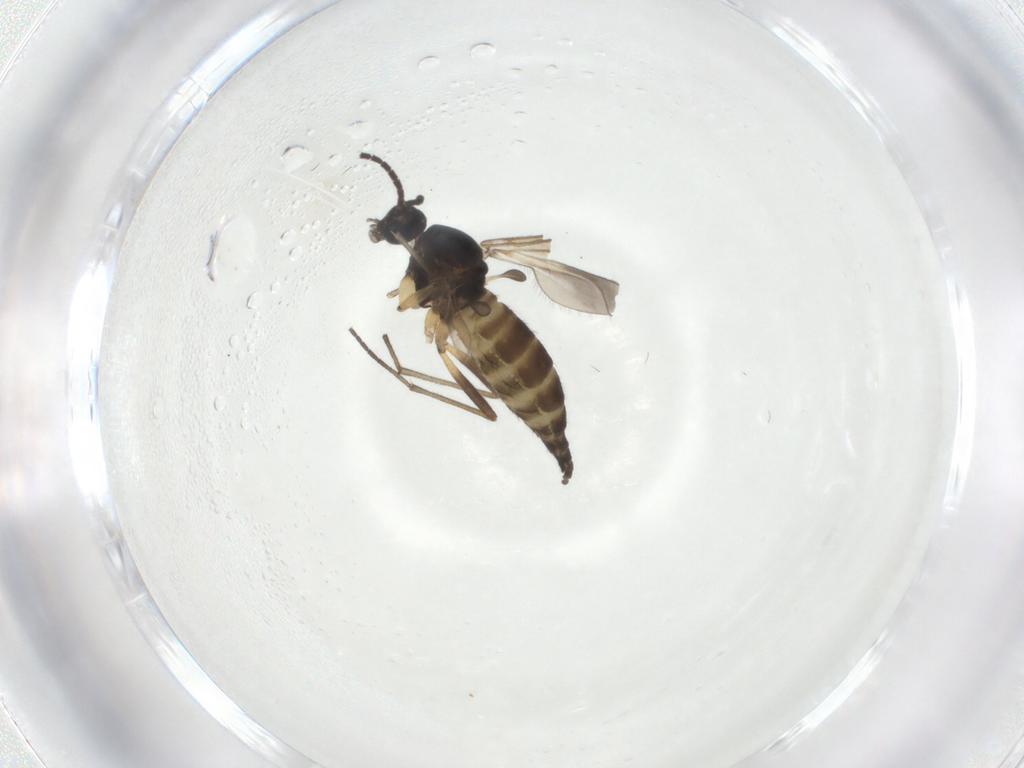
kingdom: Animalia
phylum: Arthropoda
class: Insecta
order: Diptera
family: Sciaridae
